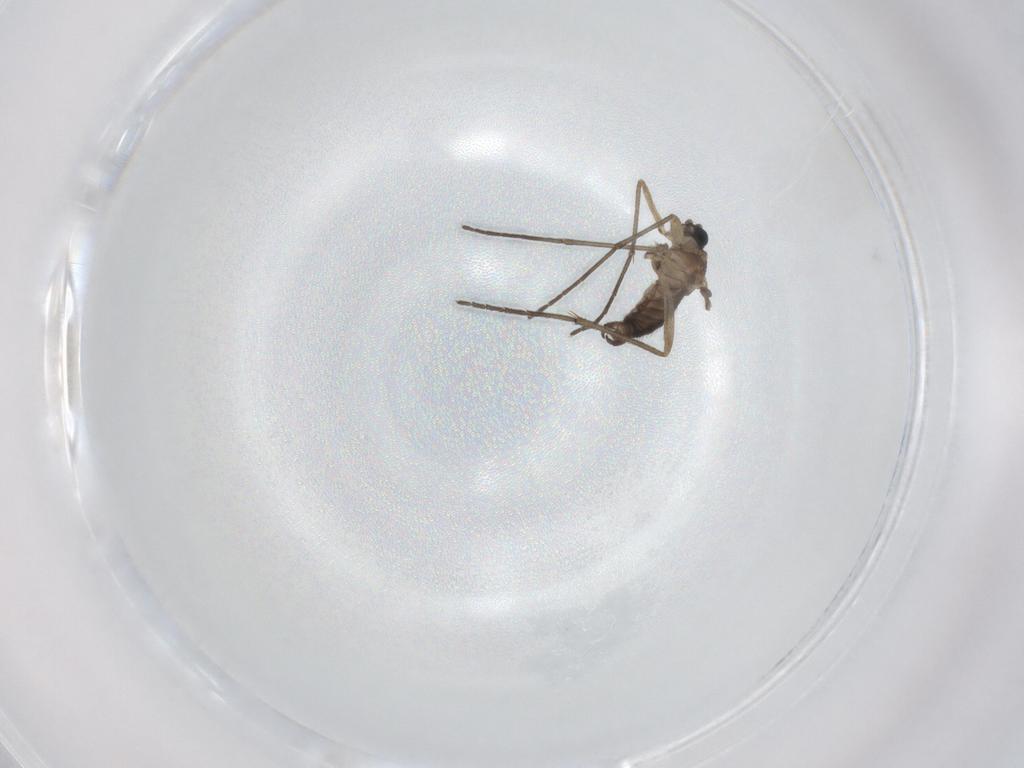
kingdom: Animalia
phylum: Arthropoda
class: Insecta
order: Diptera
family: Sciaridae
